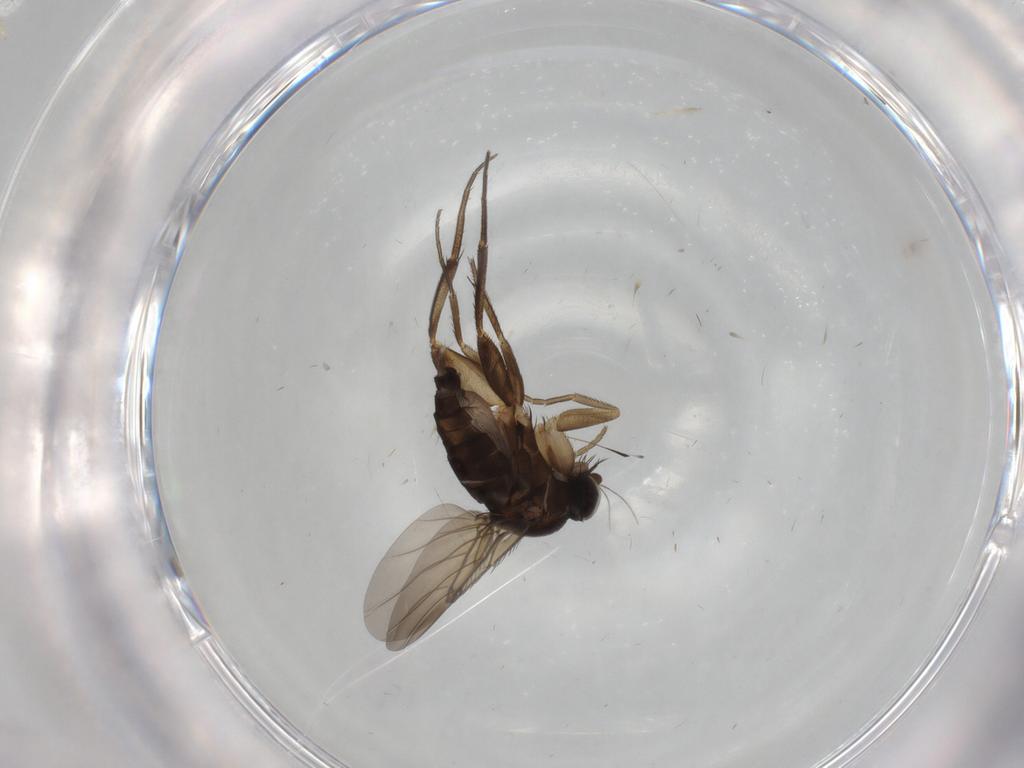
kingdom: Animalia
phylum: Arthropoda
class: Insecta
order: Diptera
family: Phoridae
